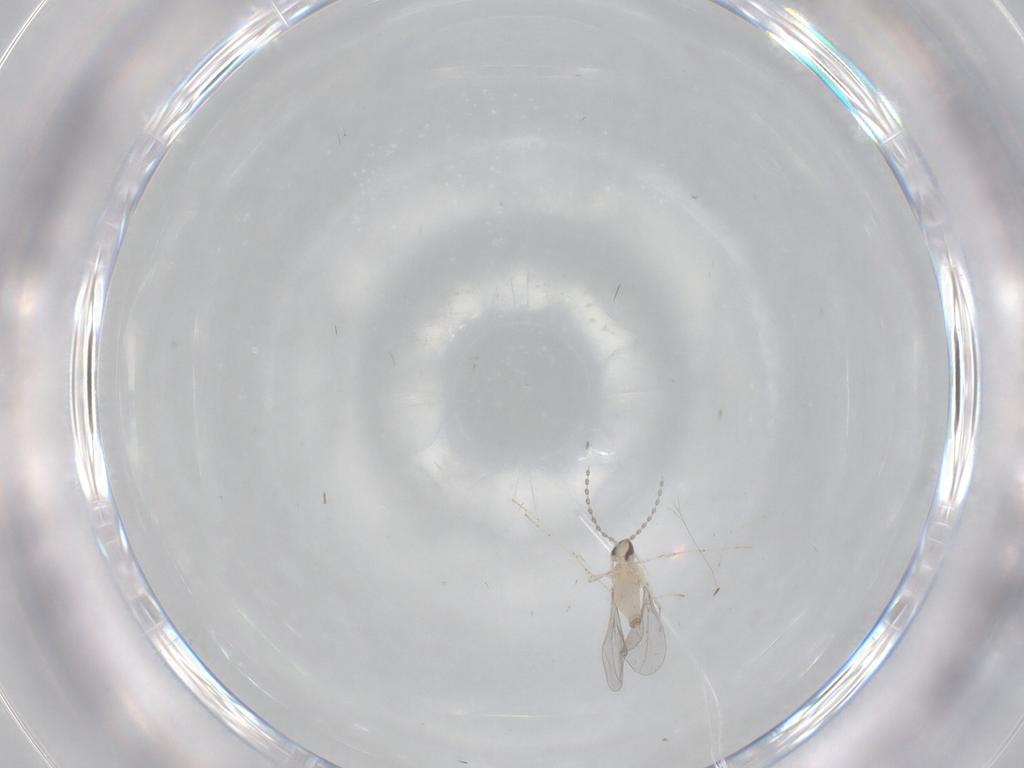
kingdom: Animalia
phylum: Arthropoda
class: Insecta
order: Diptera
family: Cecidomyiidae
